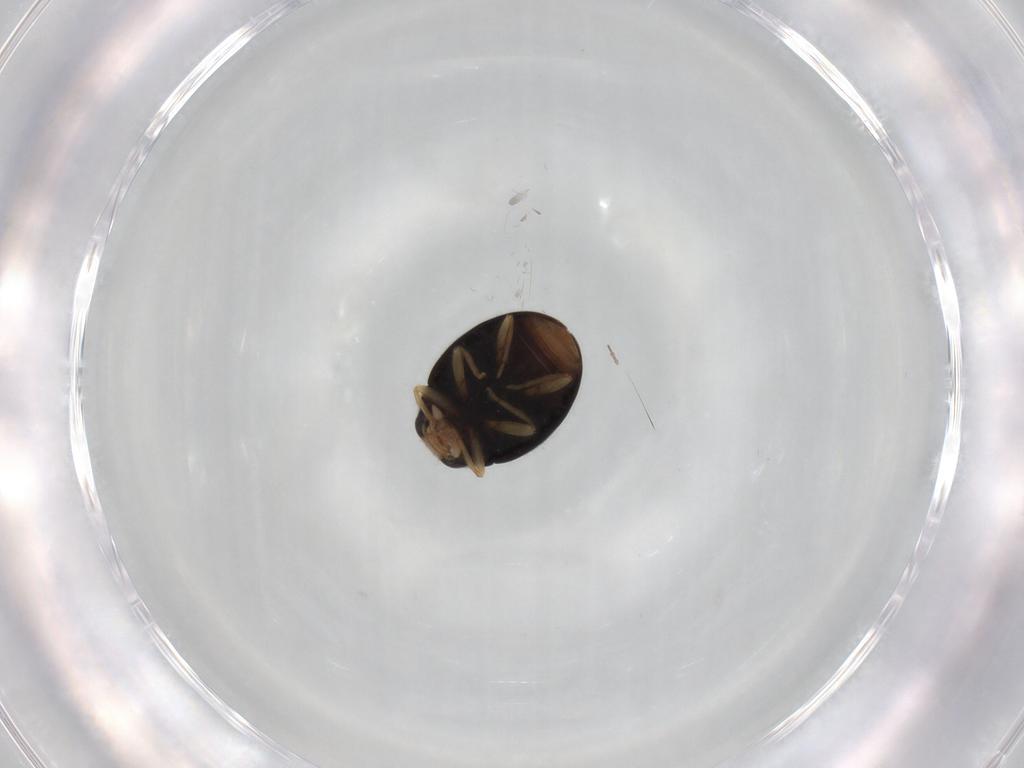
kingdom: Animalia
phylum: Arthropoda
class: Insecta
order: Coleoptera
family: Coccinellidae
